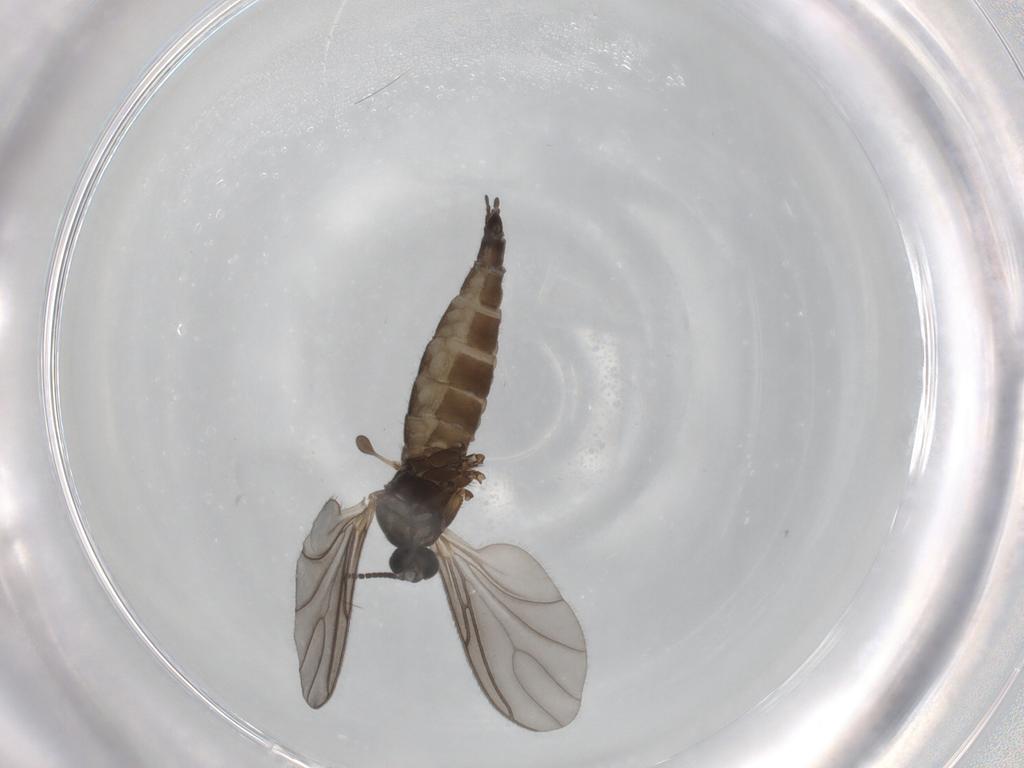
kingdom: Animalia
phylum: Arthropoda
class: Insecta
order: Diptera
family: Sciaridae
